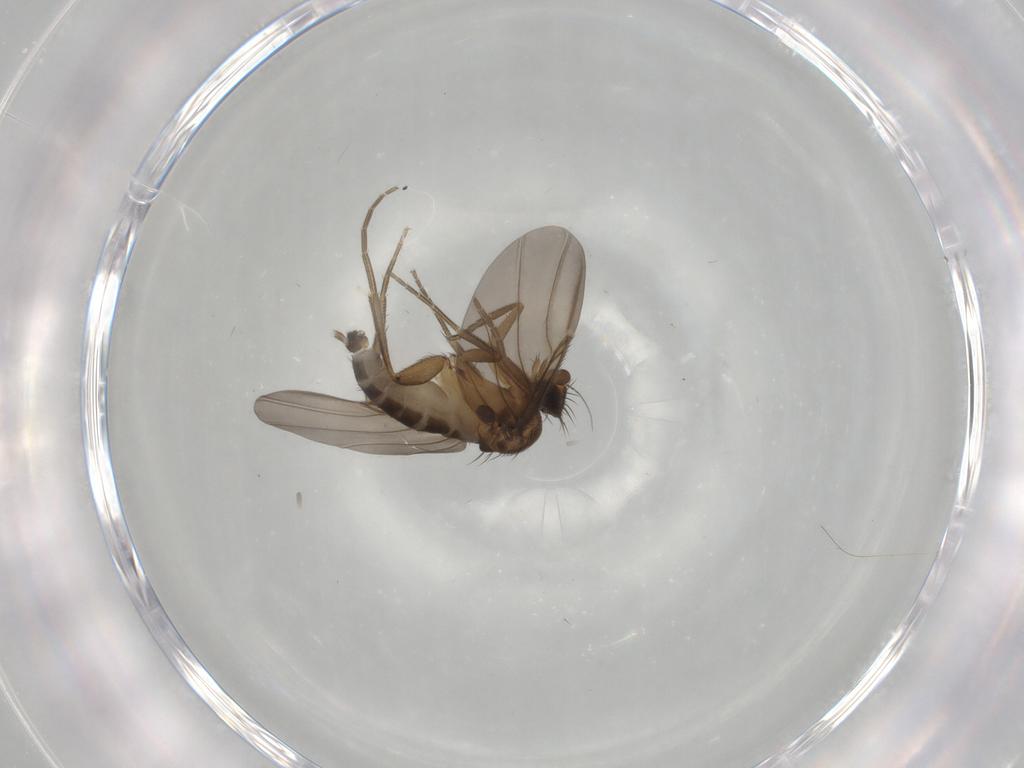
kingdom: Animalia
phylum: Arthropoda
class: Insecta
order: Diptera
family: Phoridae
